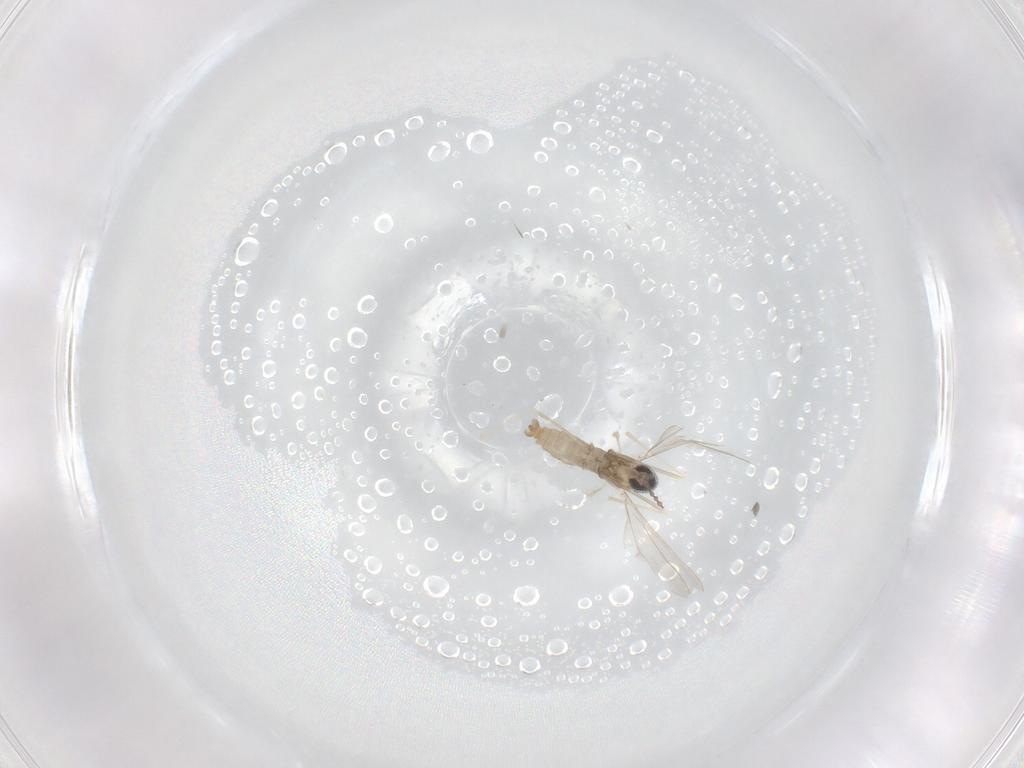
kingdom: Animalia
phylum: Arthropoda
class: Insecta
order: Diptera
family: Cecidomyiidae
